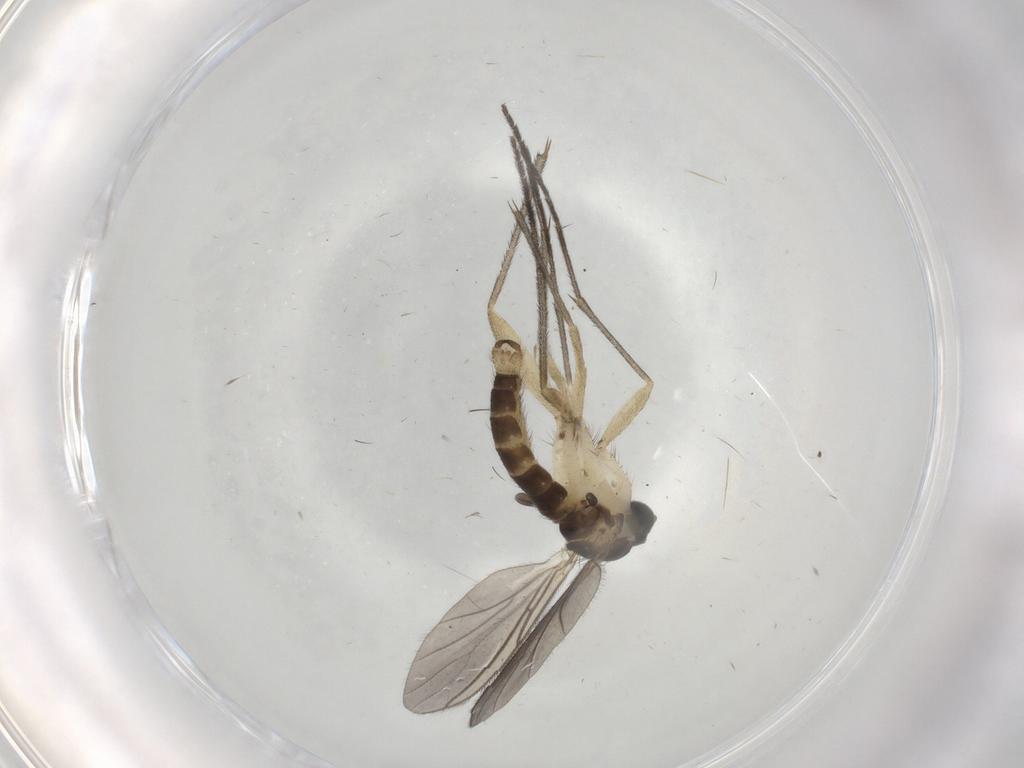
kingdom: Animalia
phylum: Arthropoda
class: Insecta
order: Diptera
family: Sciaridae
